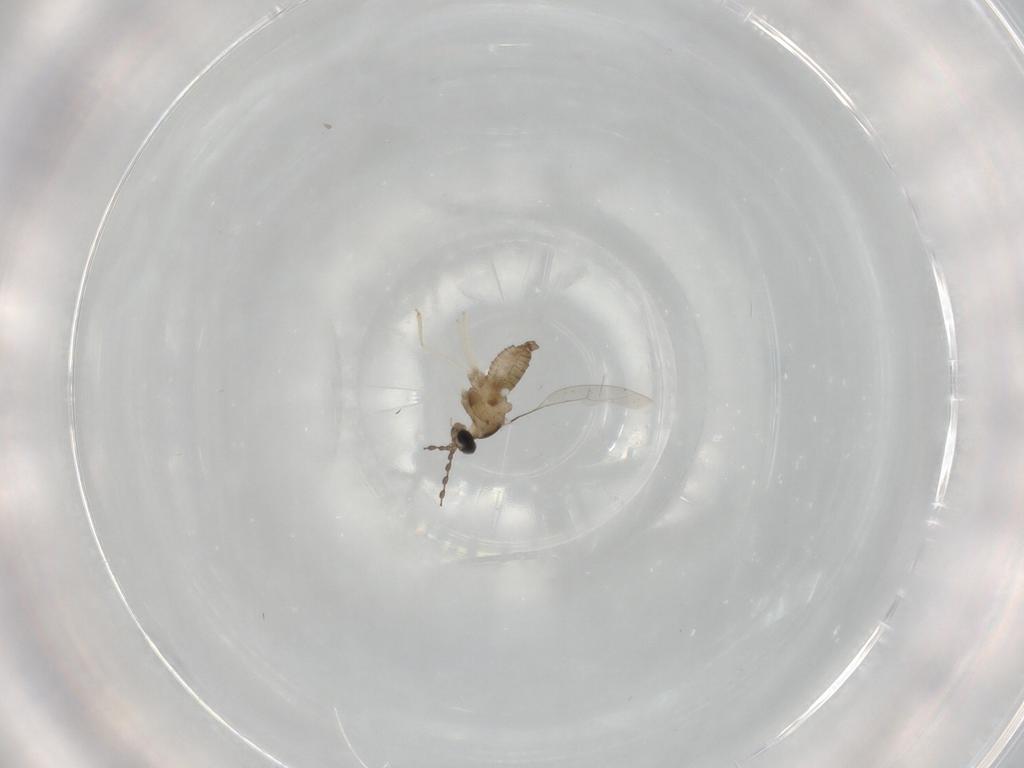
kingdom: Animalia
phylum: Arthropoda
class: Insecta
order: Diptera
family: Cecidomyiidae
